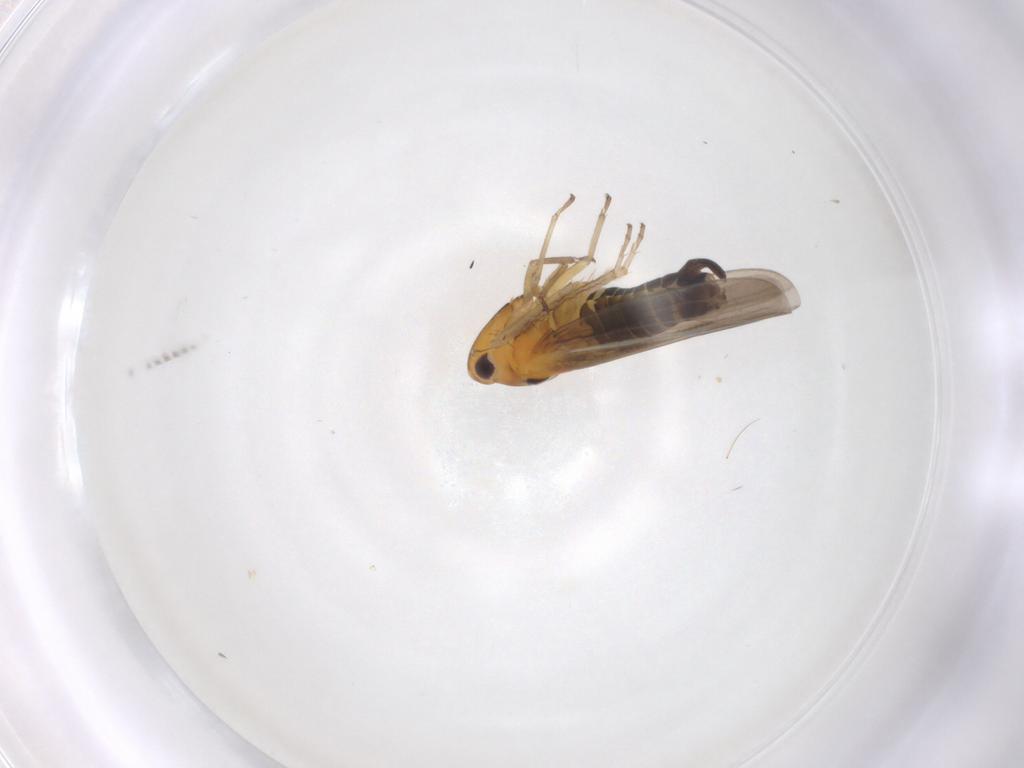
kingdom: Animalia
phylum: Arthropoda
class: Insecta
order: Hemiptera
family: Cicadellidae
